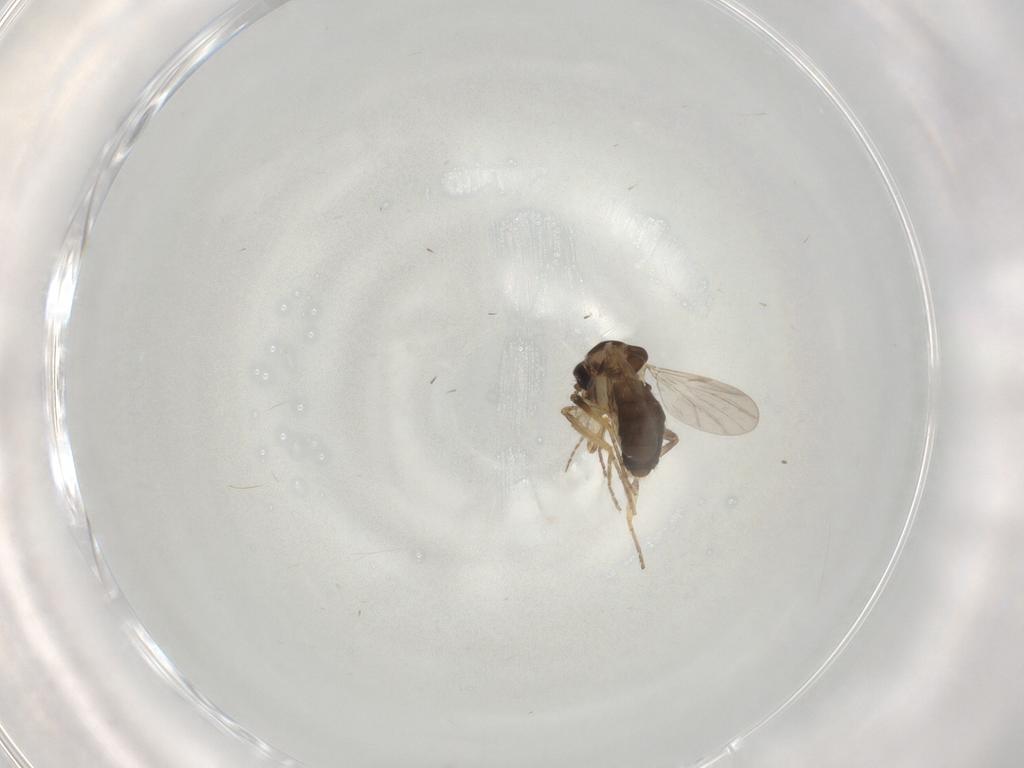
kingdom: Animalia
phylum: Arthropoda
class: Insecta
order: Diptera
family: Ceratopogonidae
